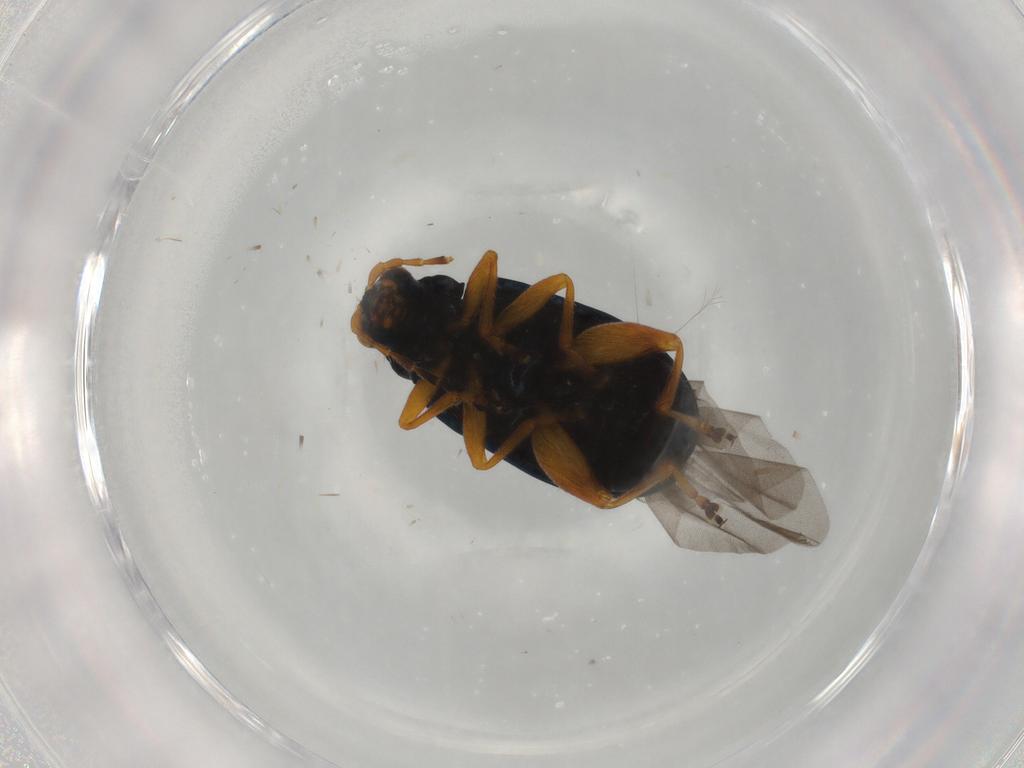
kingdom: Animalia
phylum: Arthropoda
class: Insecta
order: Coleoptera
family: Chrysomelidae
